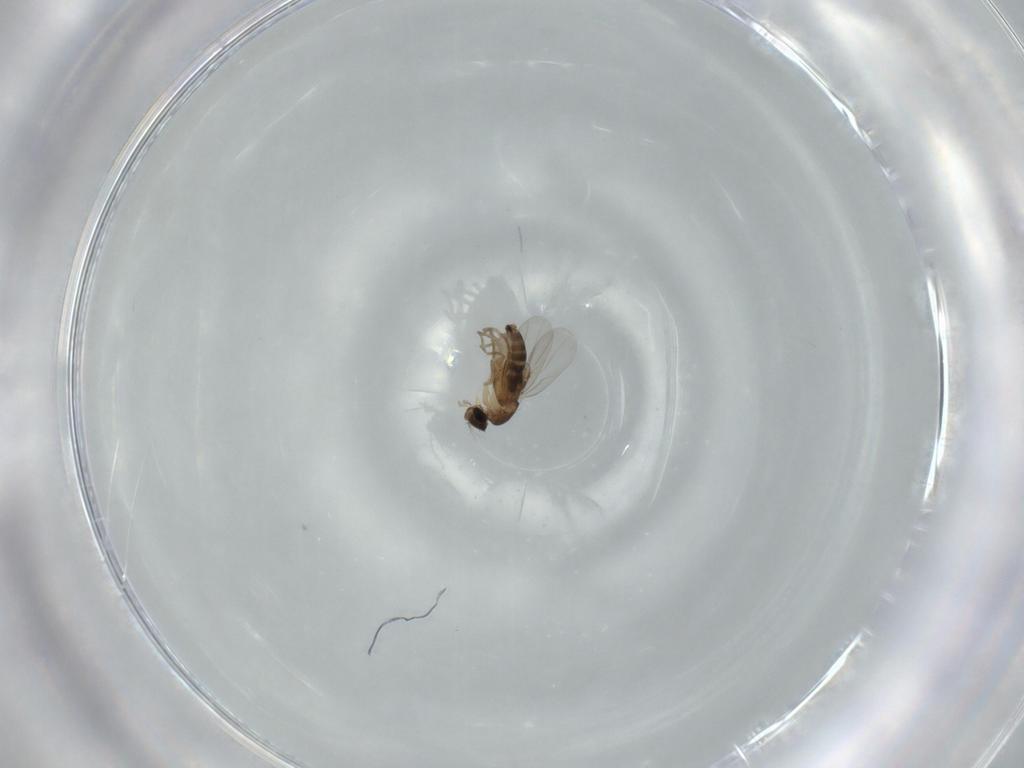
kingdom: Animalia
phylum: Arthropoda
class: Insecta
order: Diptera
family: Phoridae
